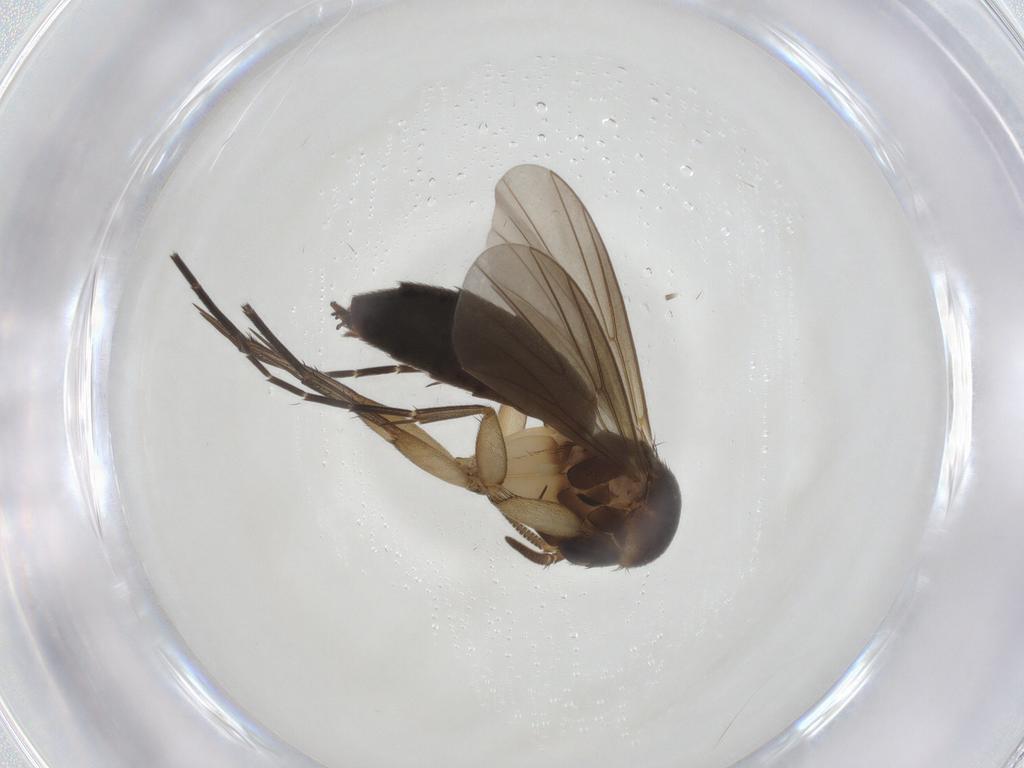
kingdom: Animalia
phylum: Arthropoda
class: Insecta
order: Diptera
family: Mycetophilidae
